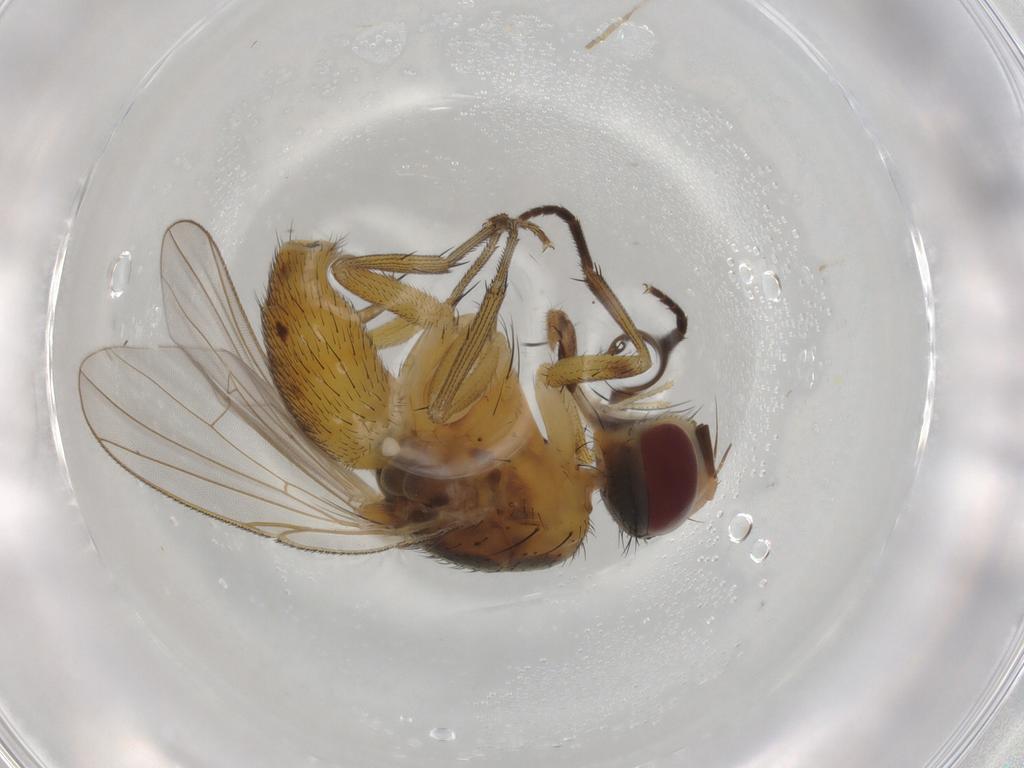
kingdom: Animalia
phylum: Arthropoda
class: Insecta
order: Diptera
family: Muscidae
